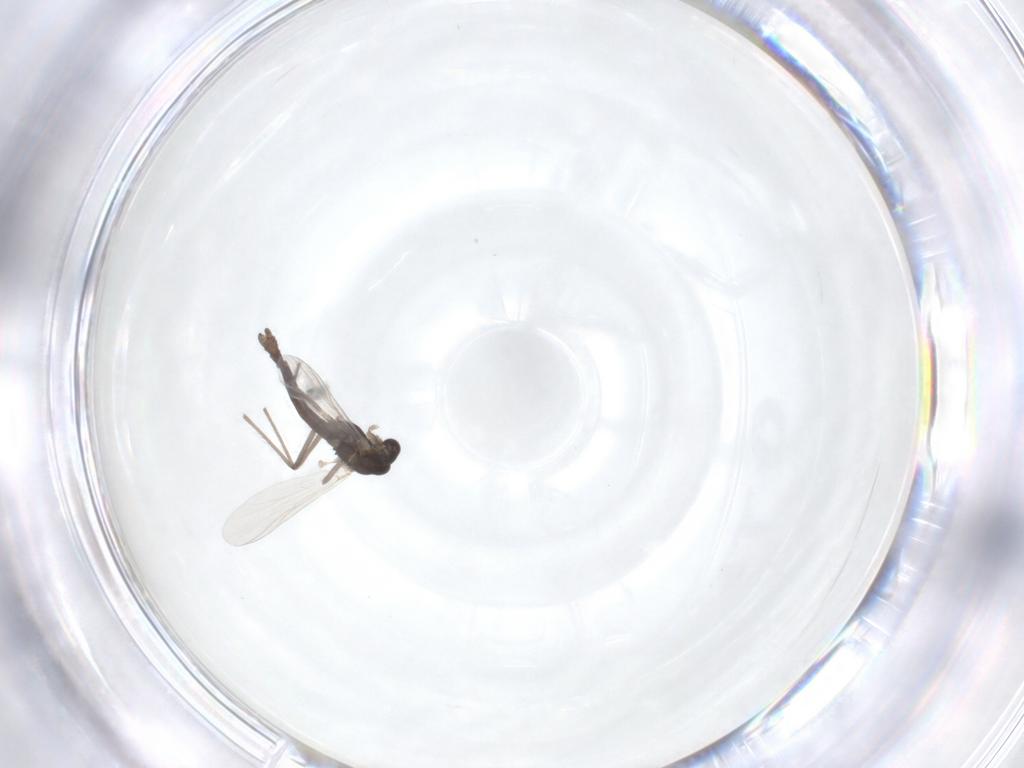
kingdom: Animalia
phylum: Arthropoda
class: Insecta
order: Diptera
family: Chironomidae
